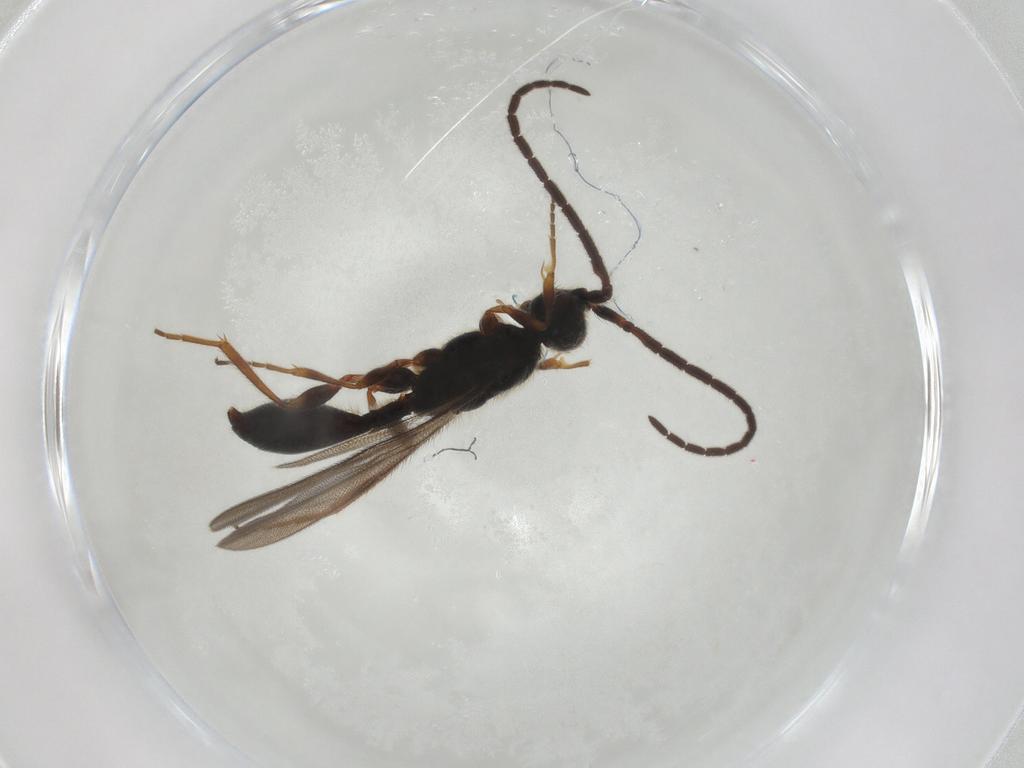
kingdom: Animalia
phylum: Arthropoda
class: Insecta
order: Hymenoptera
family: Diapriidae
